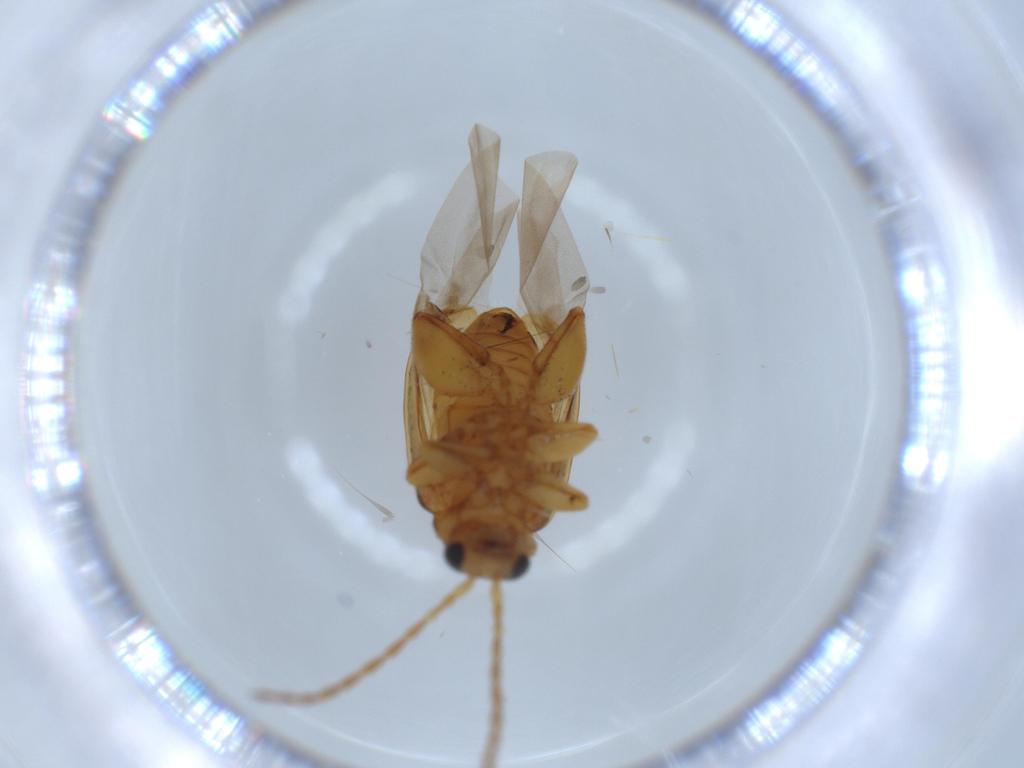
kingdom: Animalia
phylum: Arthropoda
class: Insecta
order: Coleoptera
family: Chrysomelidae
